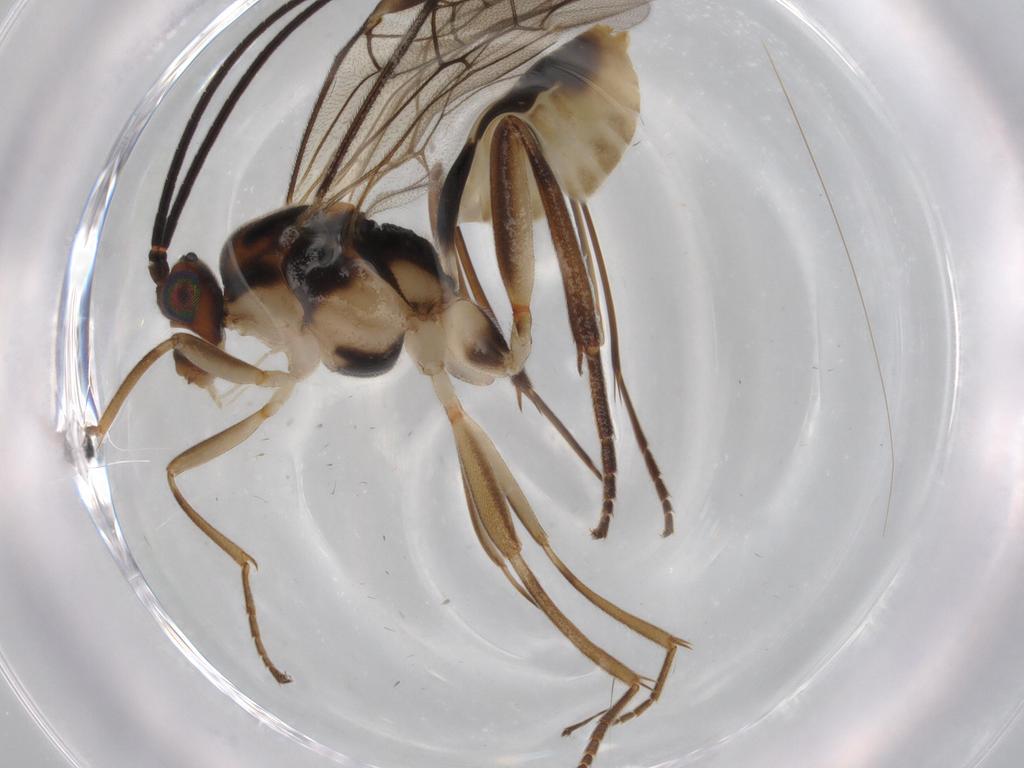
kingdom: Animalia
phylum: Arthropoda
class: Insecta
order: Hymenoptera
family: Diapriidae
